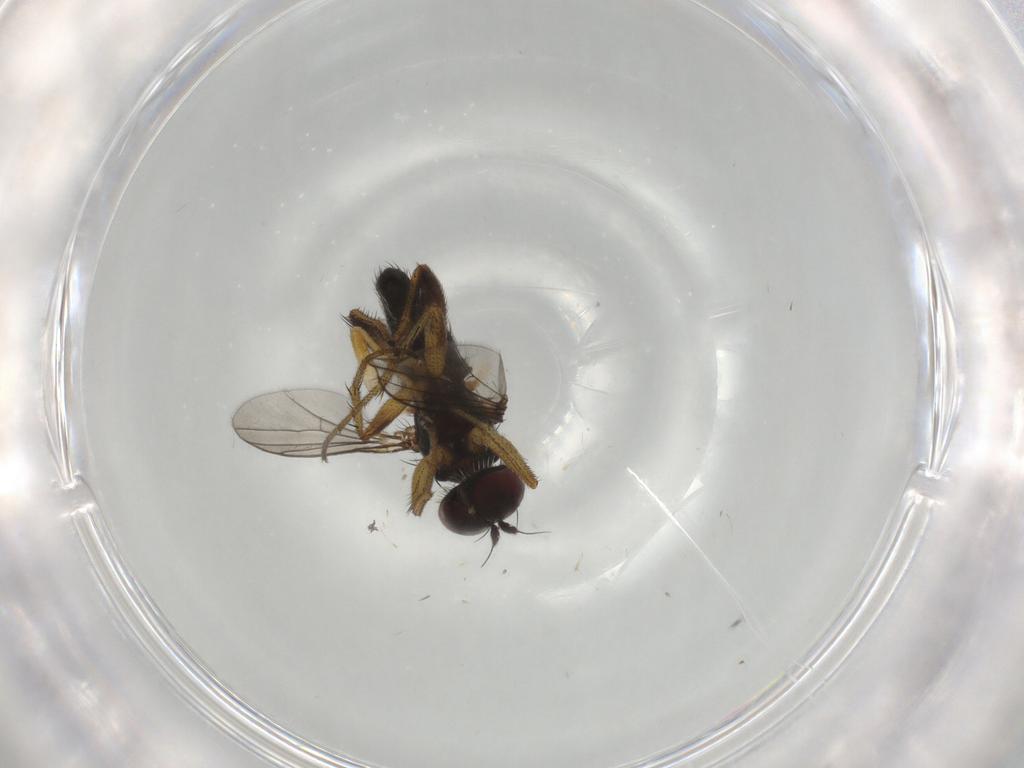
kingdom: Animalia
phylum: Arthropoda
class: Insecta
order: Diptera
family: Dolichopodidae
